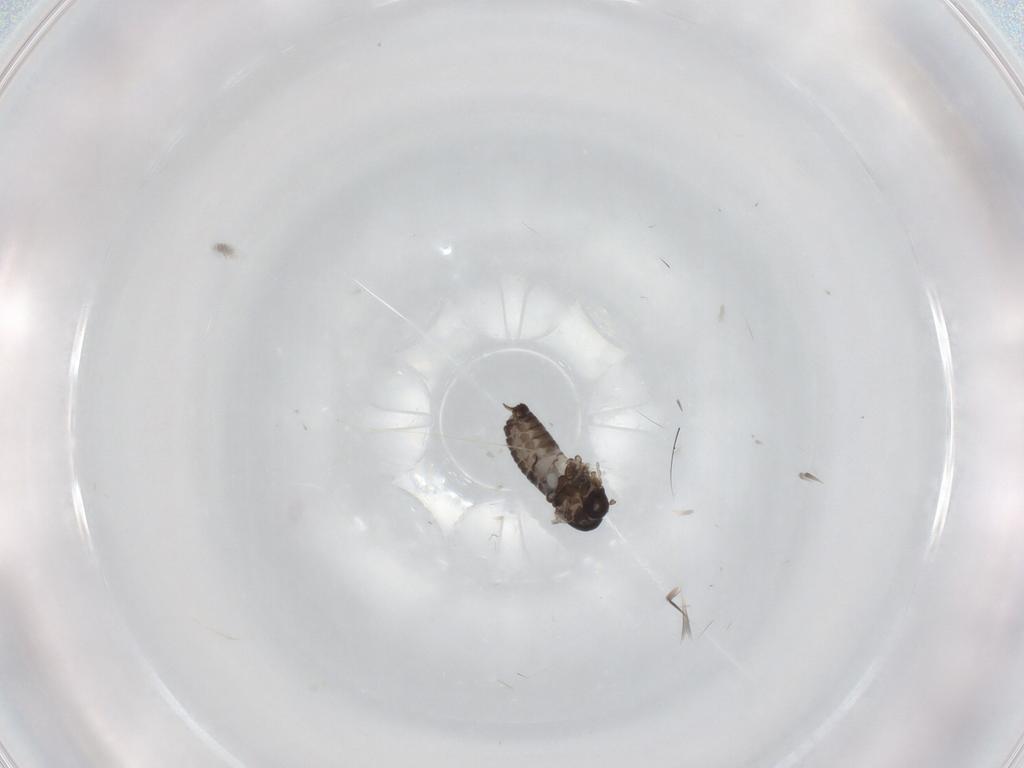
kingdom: Animalia
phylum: Arthropoda
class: Insecta
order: Diptera
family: Psychodidae
